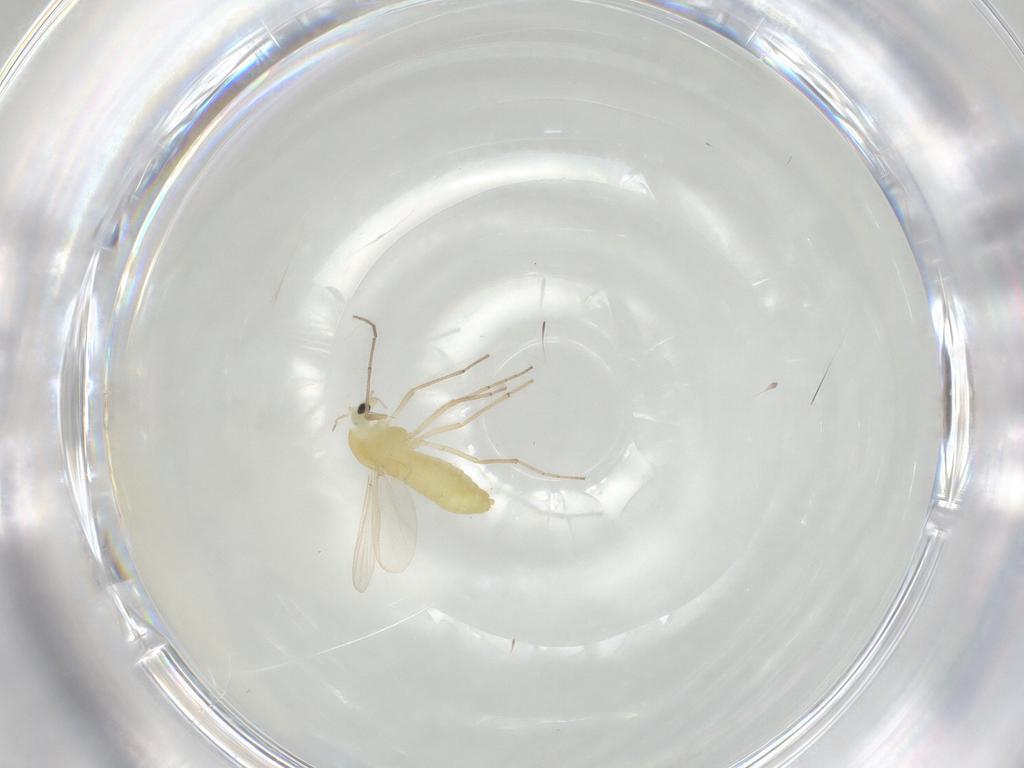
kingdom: Animalia
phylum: Arthropoda
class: Insecta
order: Diptera
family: Chironomidae
